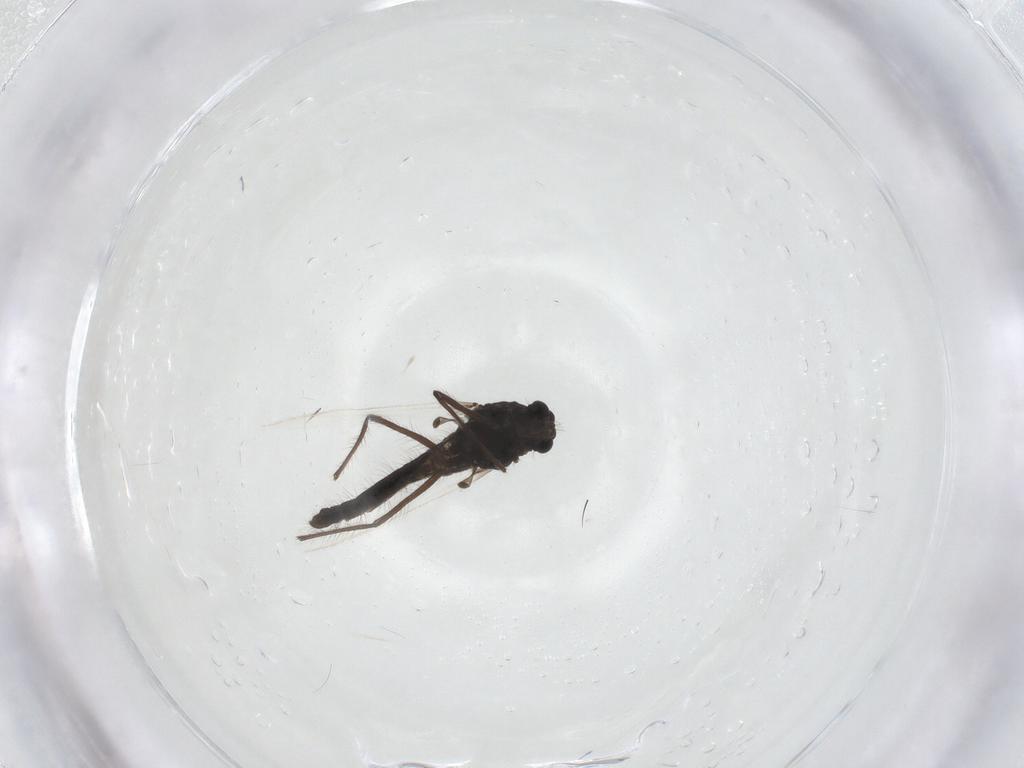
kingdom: Animalia
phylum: Arthropoda
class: Insecta
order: Diptera
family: Chironomidae
